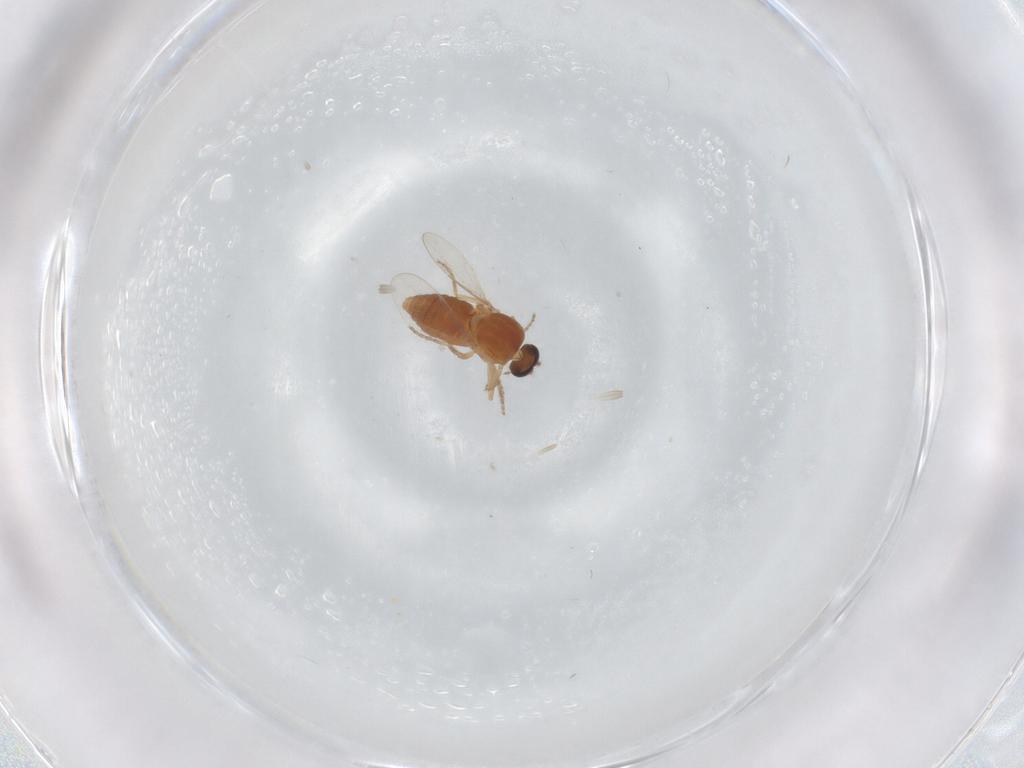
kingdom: Animalia
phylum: Arthropoda
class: Insecta
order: Diptera
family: Ceratopogonidae
